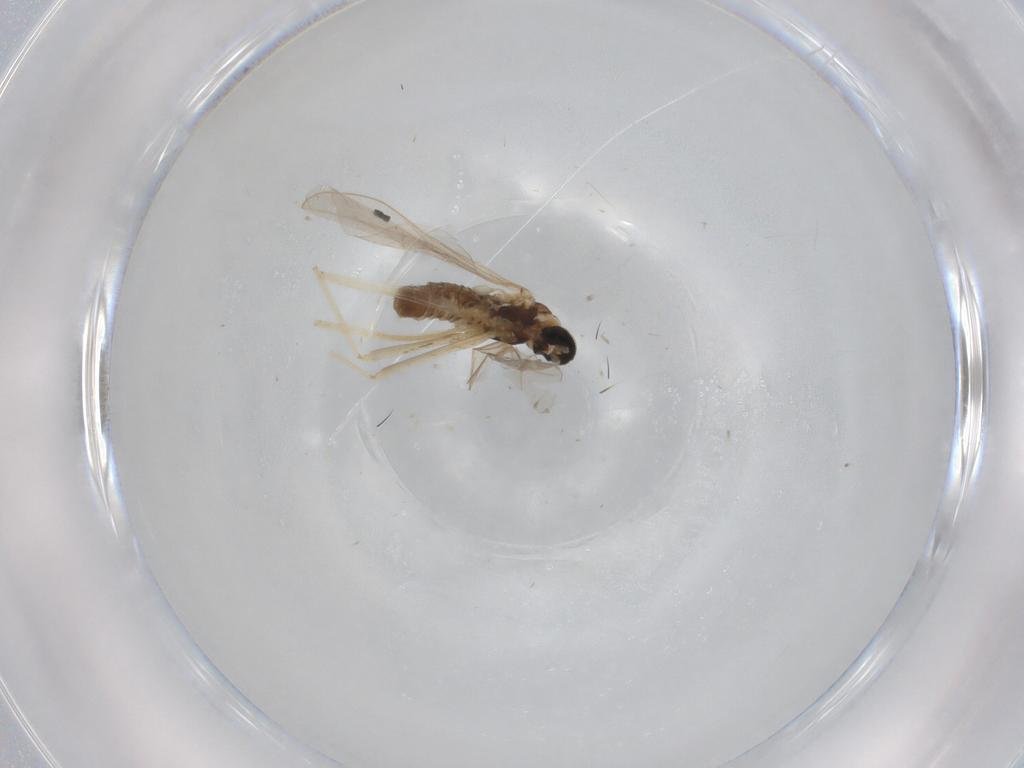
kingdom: Animalia
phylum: Arthropoda
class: Insecta
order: Diptera
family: Cecidomyiidae
